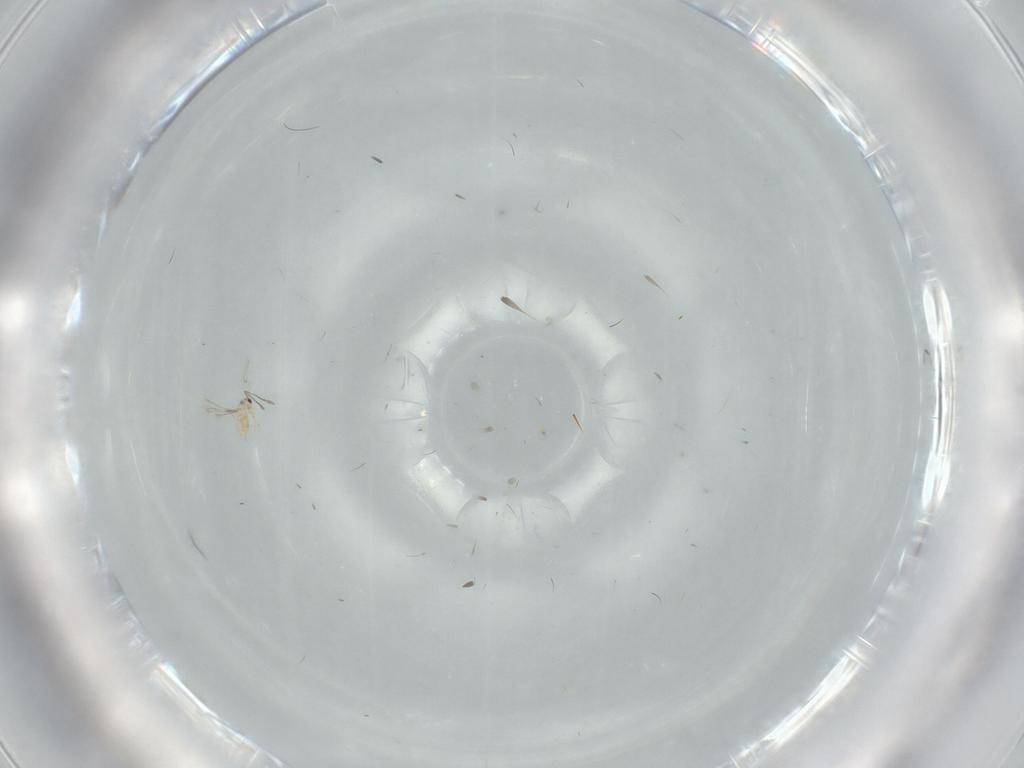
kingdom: Animalia
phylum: Arthropoda
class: Insecta
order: Hymenoptera
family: Mymaridae
